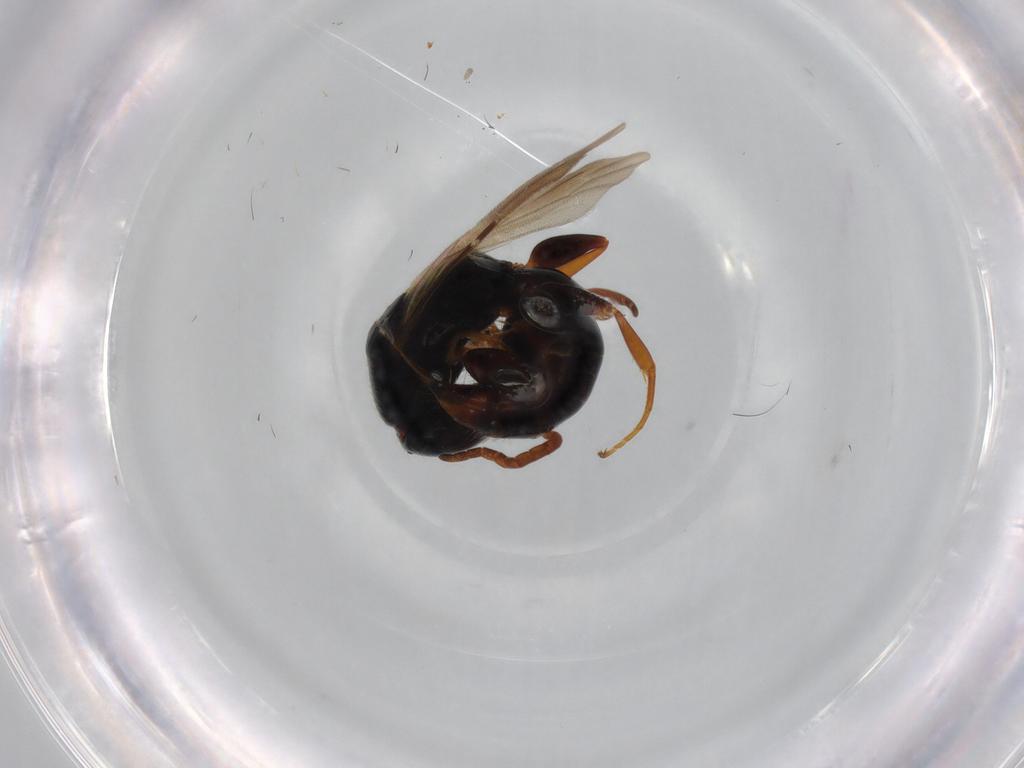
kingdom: Animalia
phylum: Arthropoda
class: Insecta
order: Hymenoptera
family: Bethylidae
